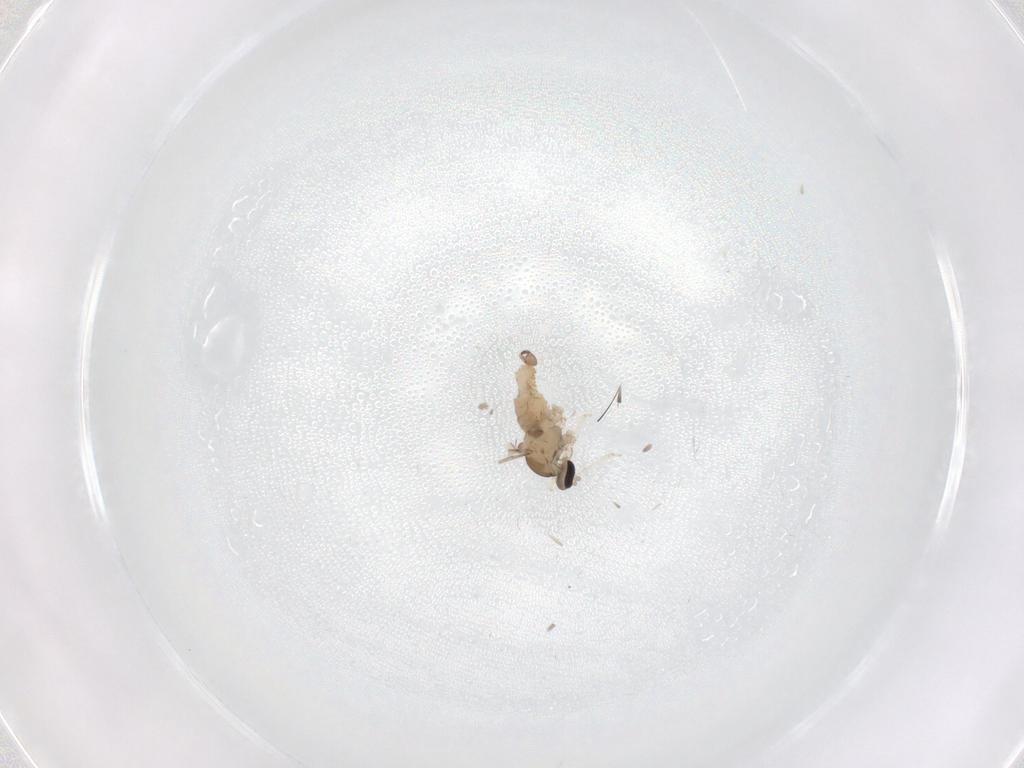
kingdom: Animalia
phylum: Arthropoda
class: Insecta
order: Diptera
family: Cecidomyiidae
